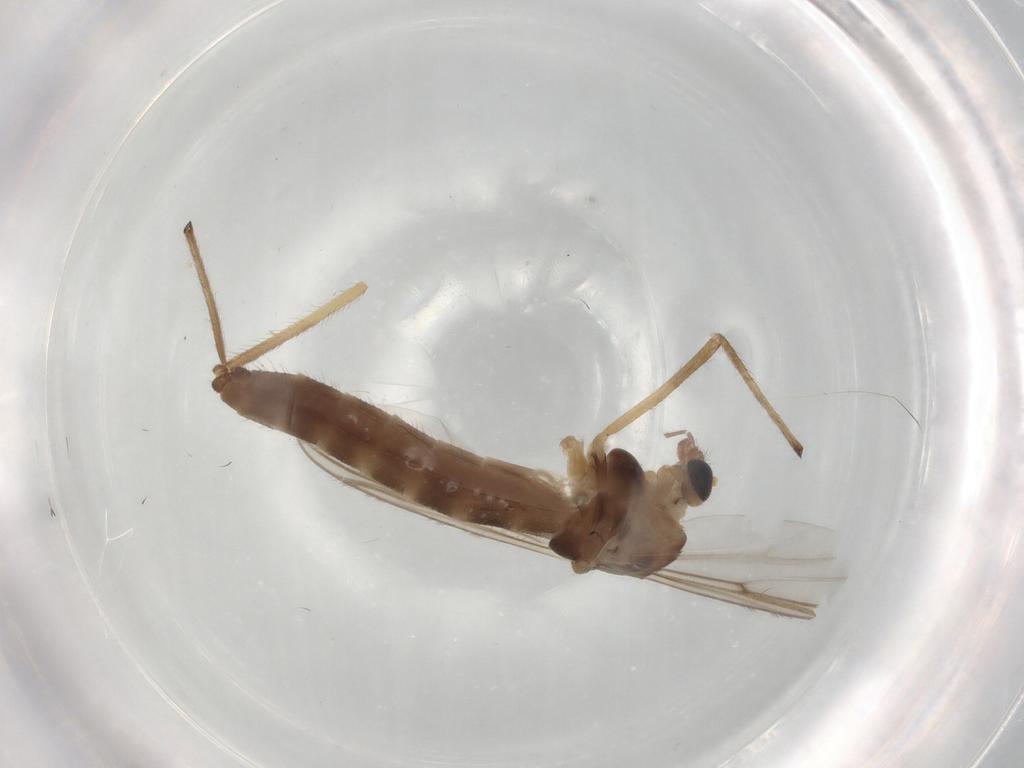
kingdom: Animalia
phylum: Arthropoda
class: Insecta
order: Diptera
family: Chironomidae
